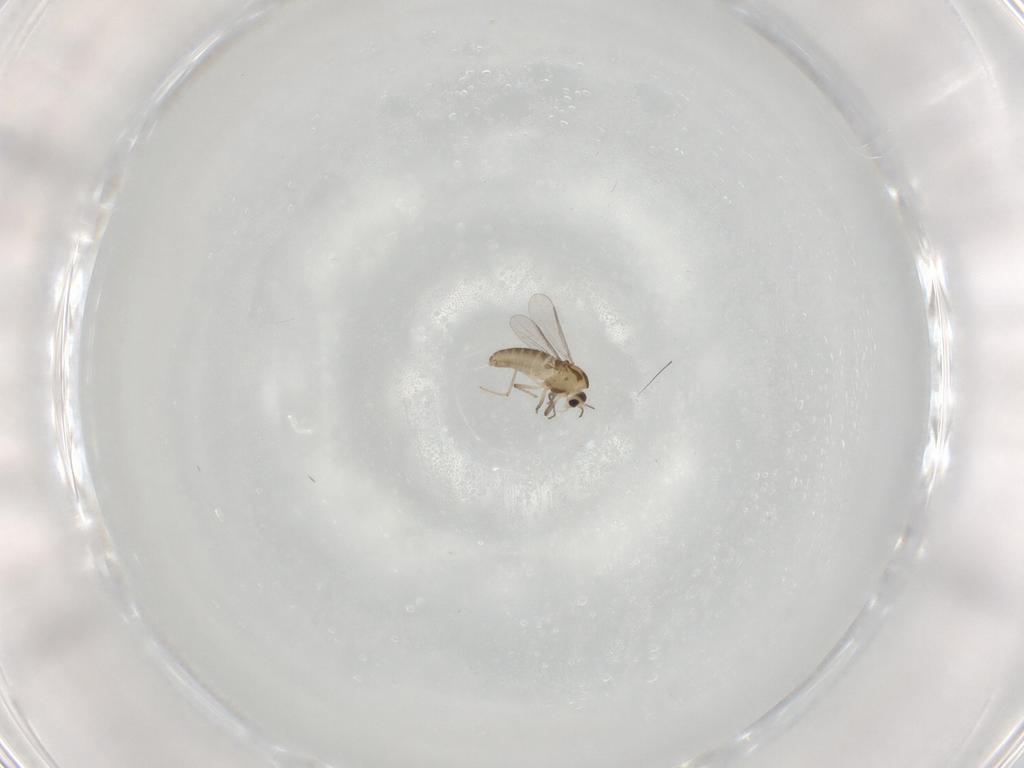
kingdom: Animalia
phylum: Arthropoda
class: Insecta
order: Diptera
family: Chironomidae
